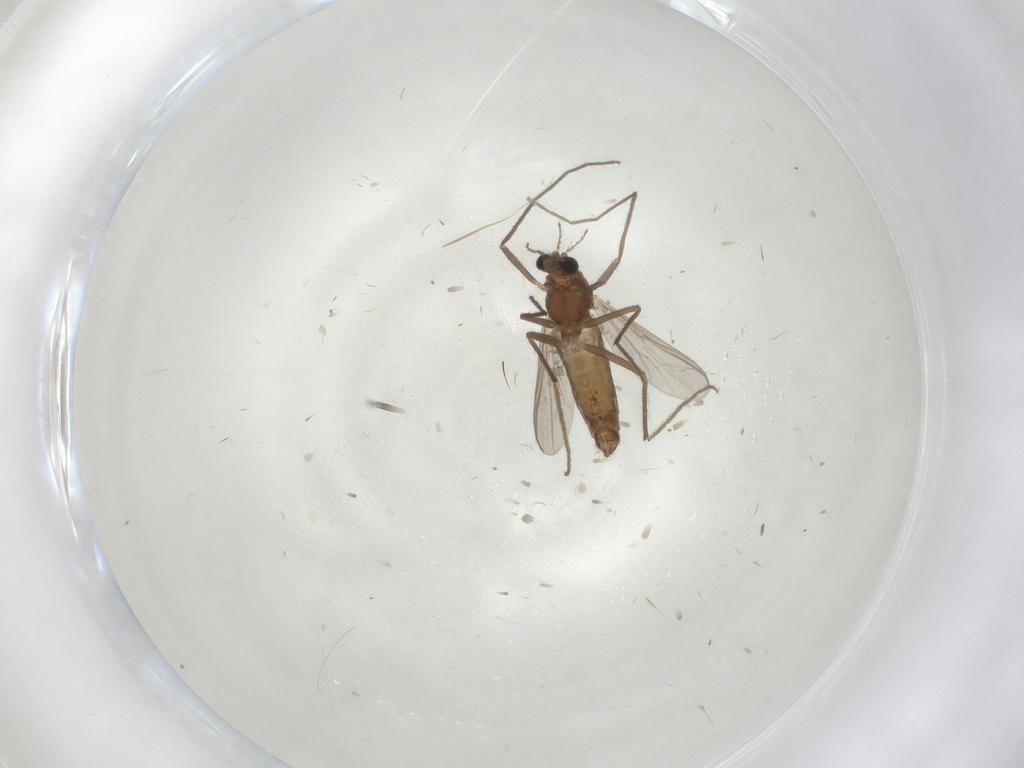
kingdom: Animalia
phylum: Arthropoda
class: Insecta
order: Diptera
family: Chironomidae
